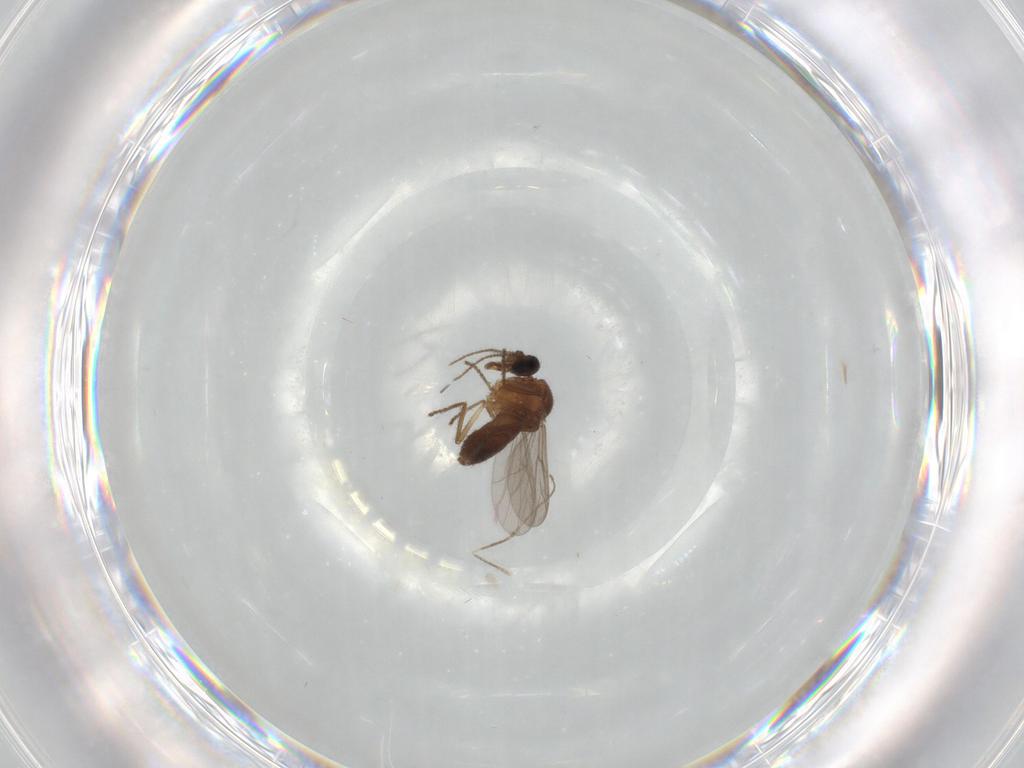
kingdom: Animalia
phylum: Arthropoda
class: Insecta
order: Diptera
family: Ceratopogonidae
